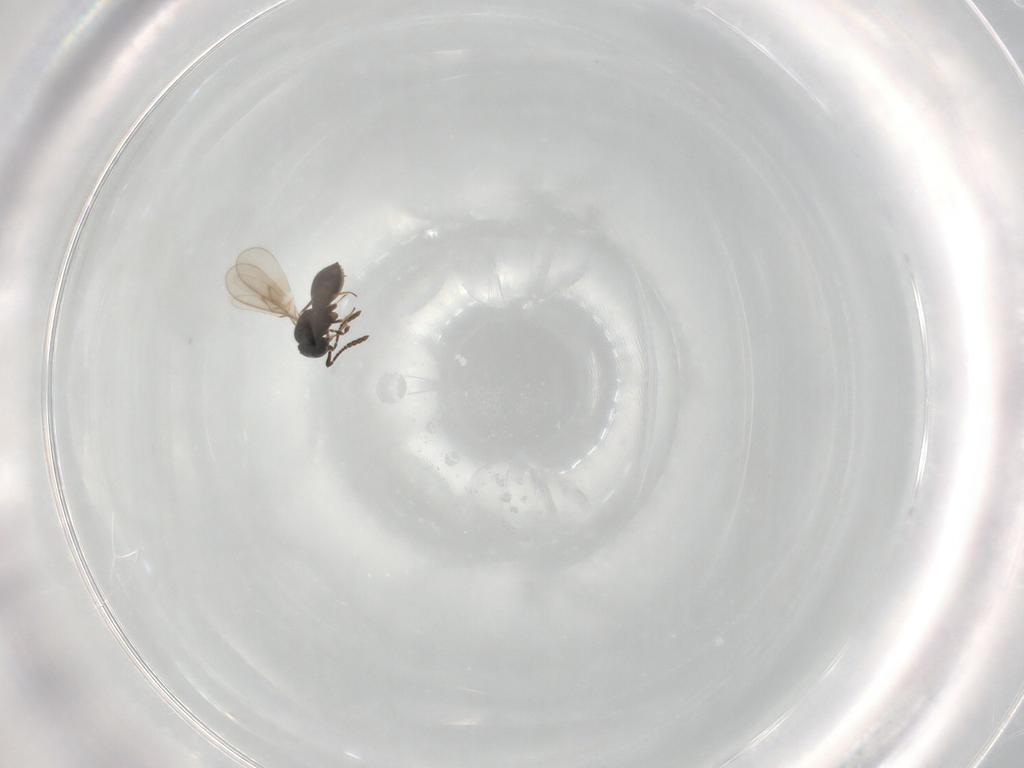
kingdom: Animalia
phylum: Arthropoda
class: Insecta
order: Hymenoptera
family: Scelionidae
